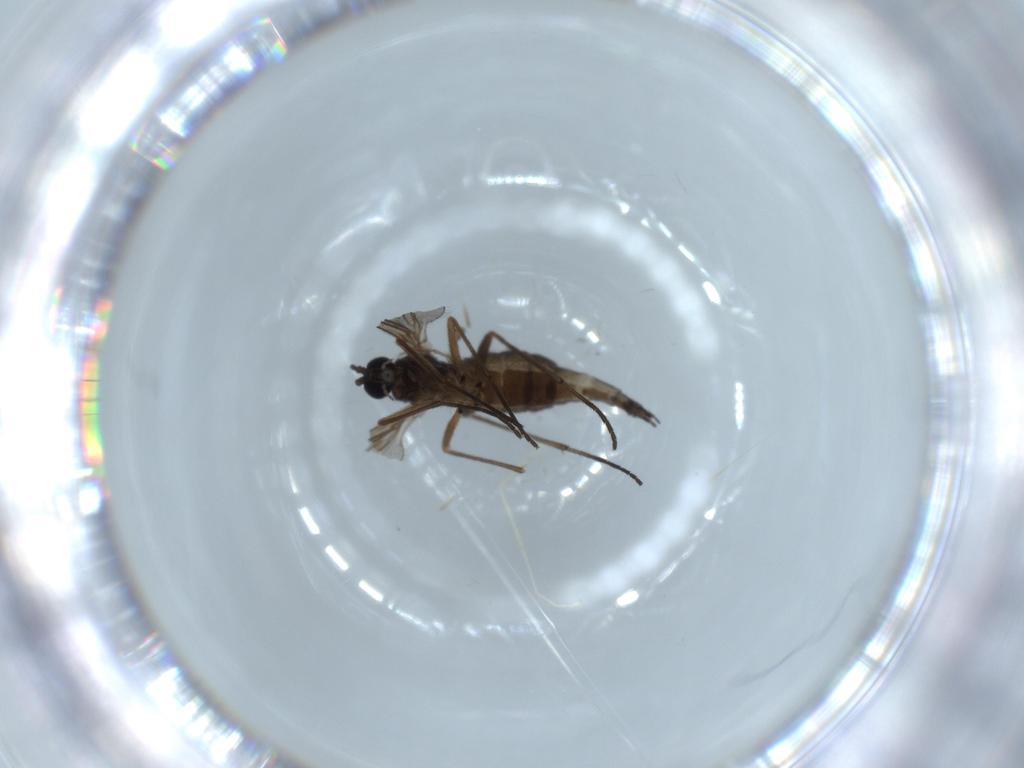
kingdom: Animalia
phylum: Arthropoda
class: Insecta
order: Diptera
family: Sciaridae
